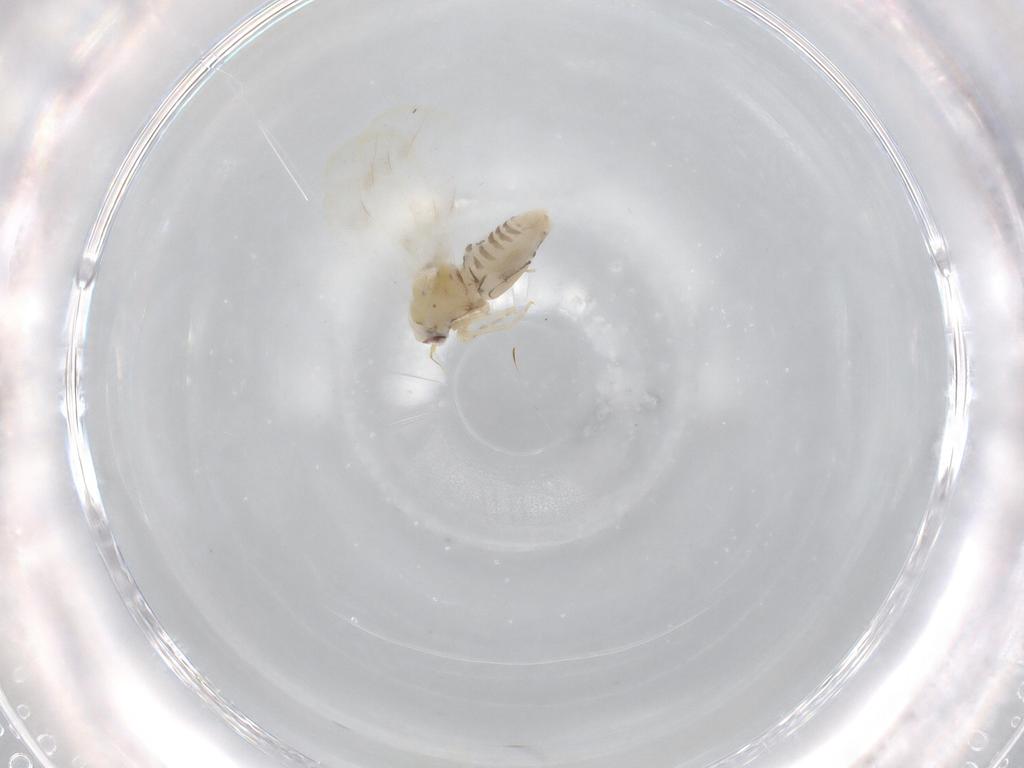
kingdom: Animalia
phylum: Arthropoda
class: Insecta
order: Hemiptera
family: Aleyrodidae
